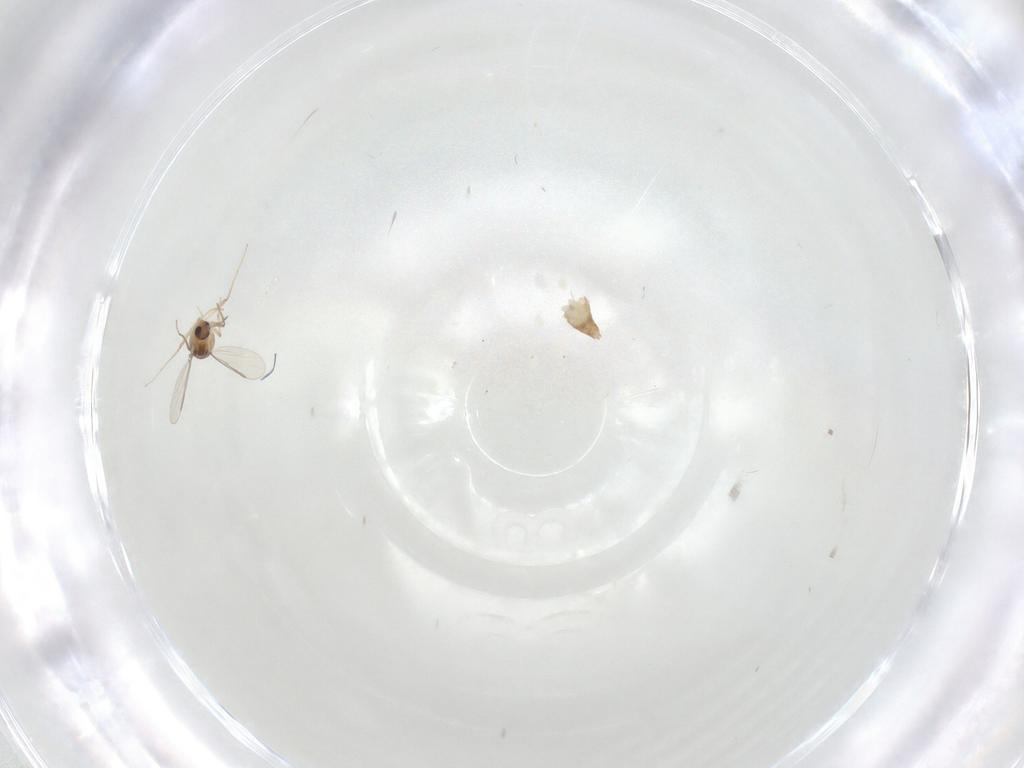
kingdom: Animalia
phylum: Arthropoda
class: Insecta
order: Diptera
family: Chironomidae
